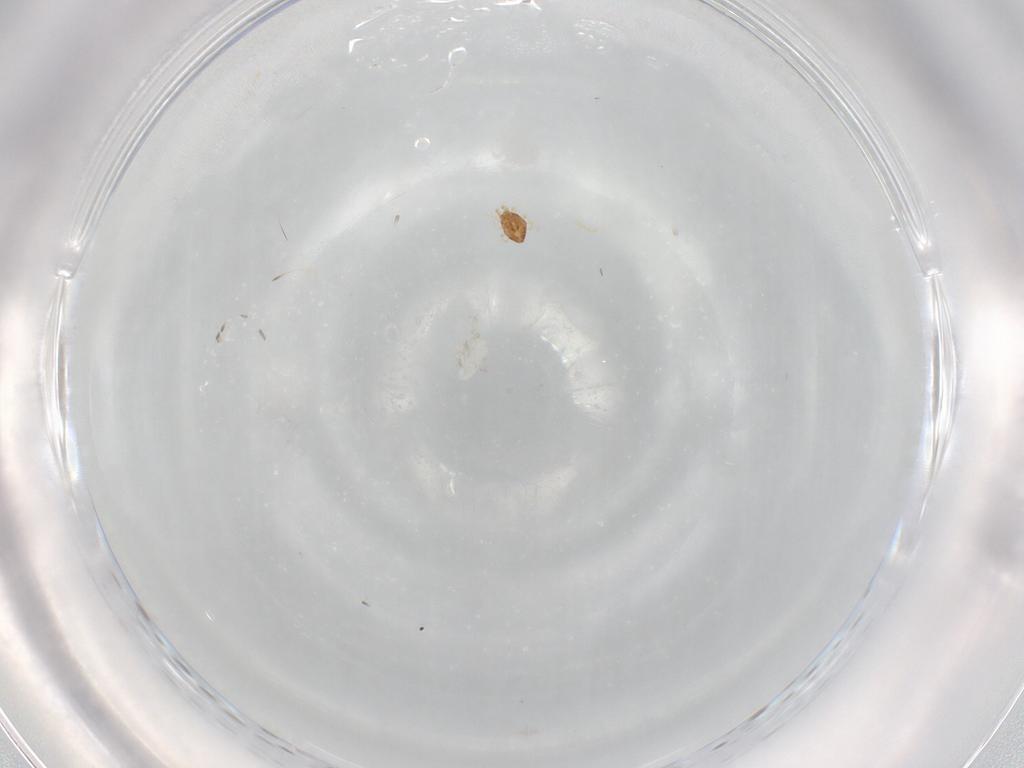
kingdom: Animalia
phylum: Arthropoda
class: Arachnida
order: Mesostigmata
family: Phytoseiidae
